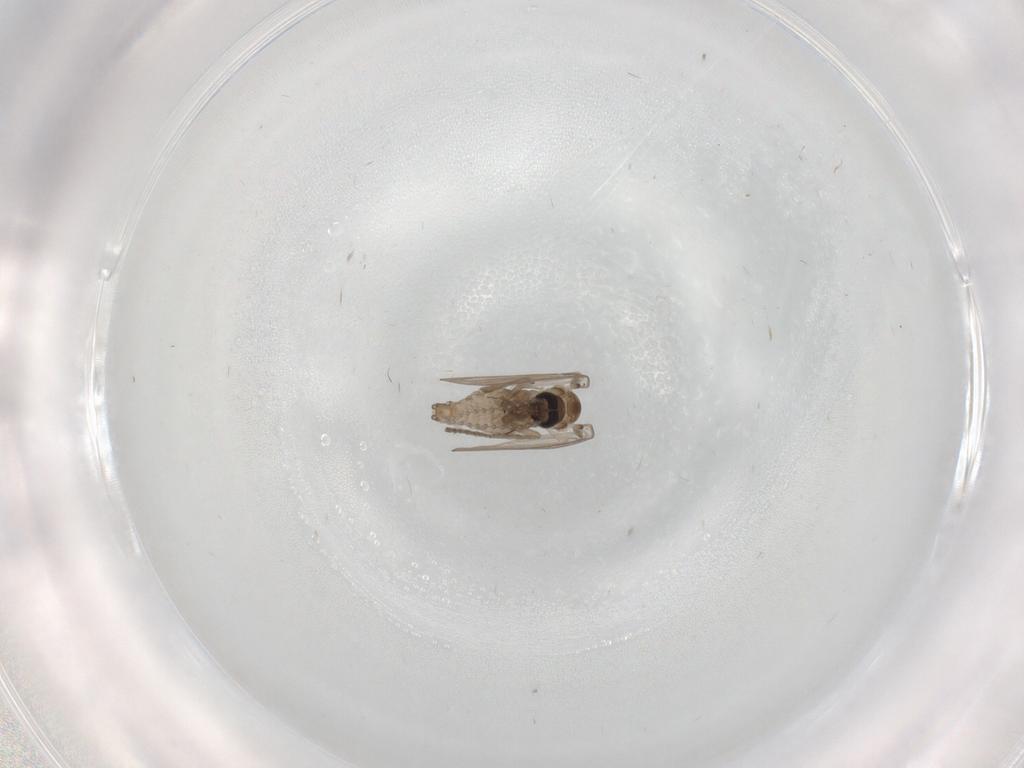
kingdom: Animalia
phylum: Arthropoda
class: Insecta
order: Diptera
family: Psychodidae
